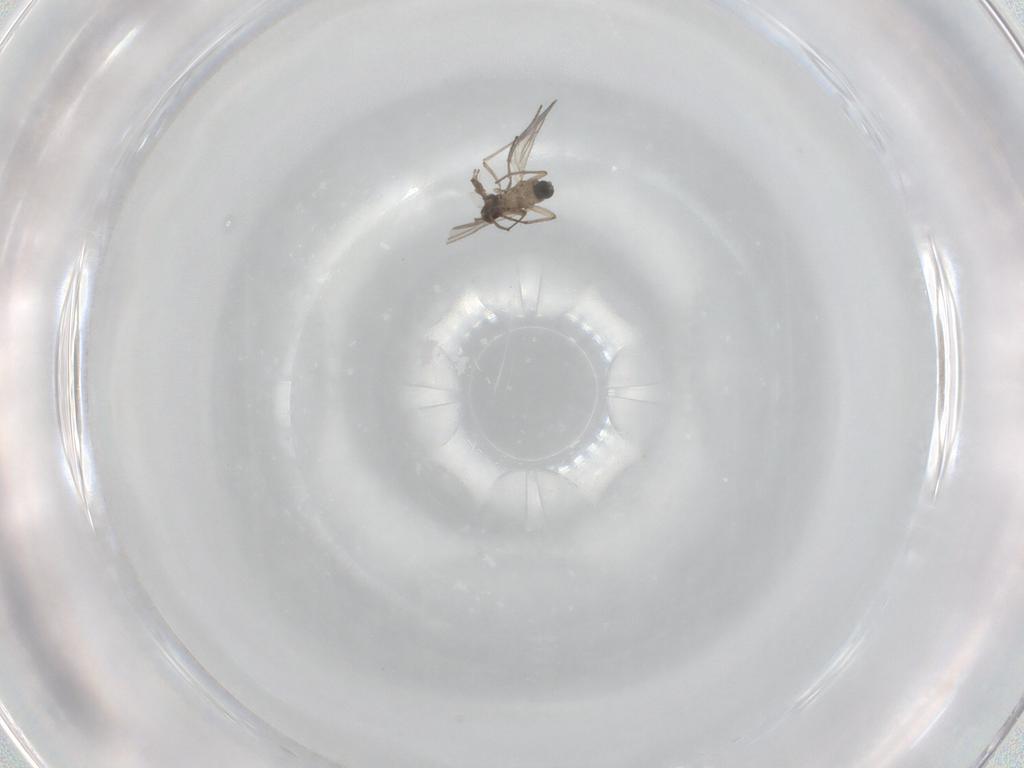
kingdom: Animalia
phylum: Arthropoda
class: Insecta
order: Diptera
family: Sciaridae
